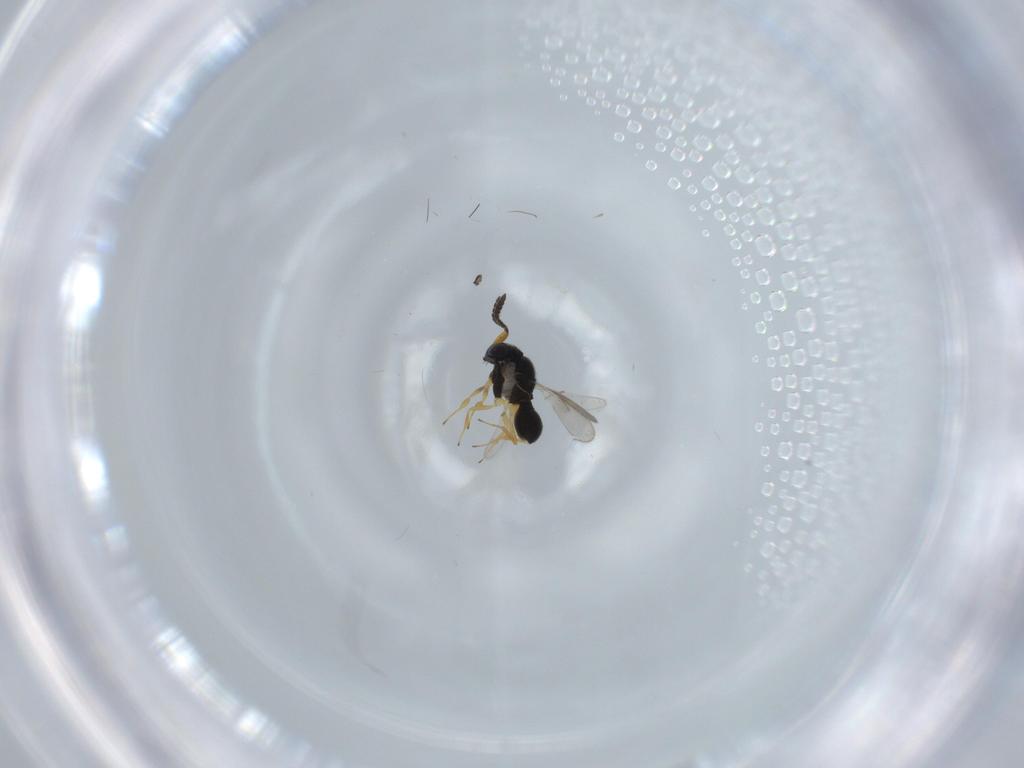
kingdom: Animalia
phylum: Arthropoda
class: Insecta
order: Hymenoptera
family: Scelionidae
